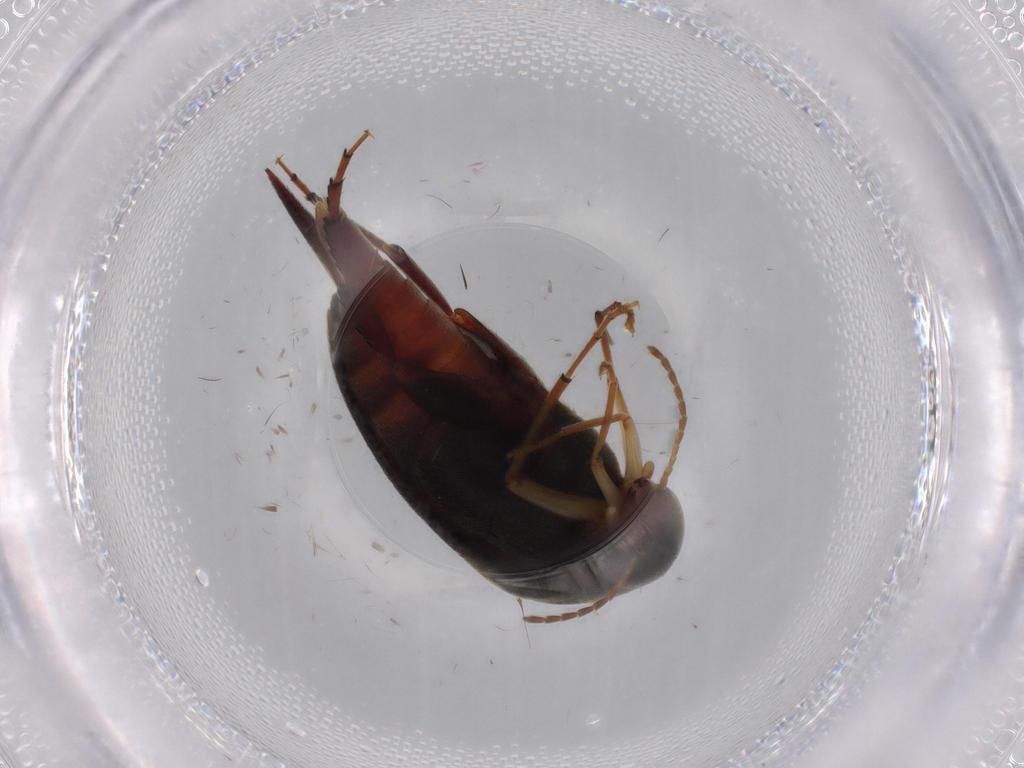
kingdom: Animalia
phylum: Arthropoda
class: Insecta
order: Coleoptera
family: Mordellidae
